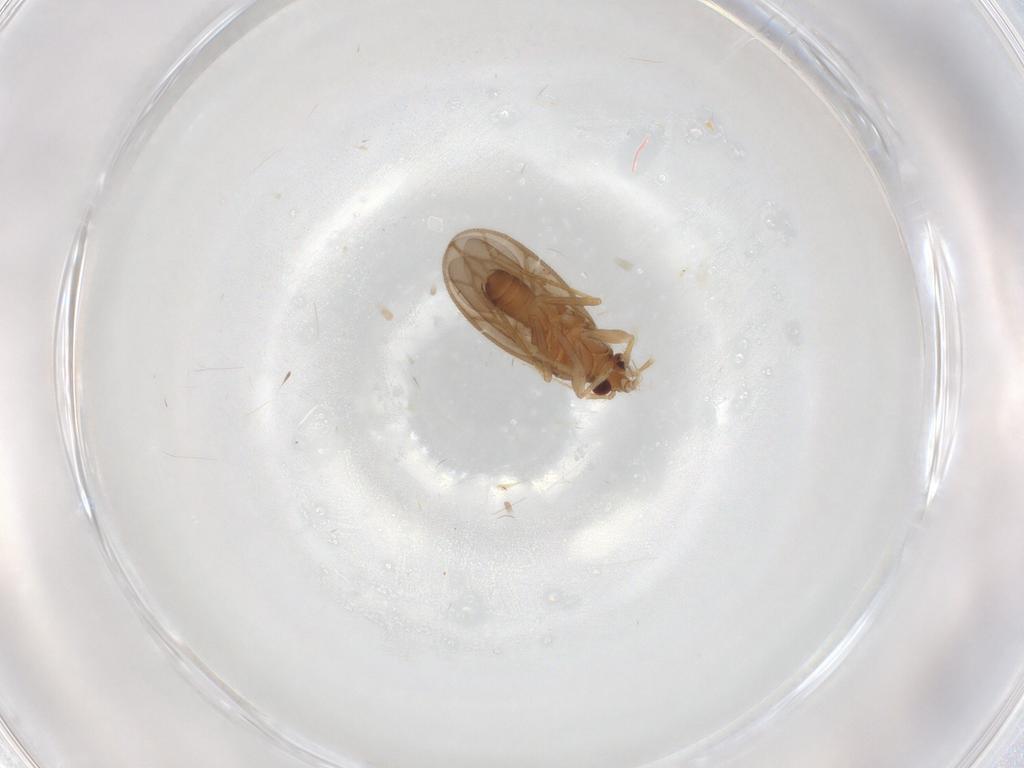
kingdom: Animalia
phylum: Arthropoda
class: Insecta
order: Hemiptera
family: Ceratocombidae
